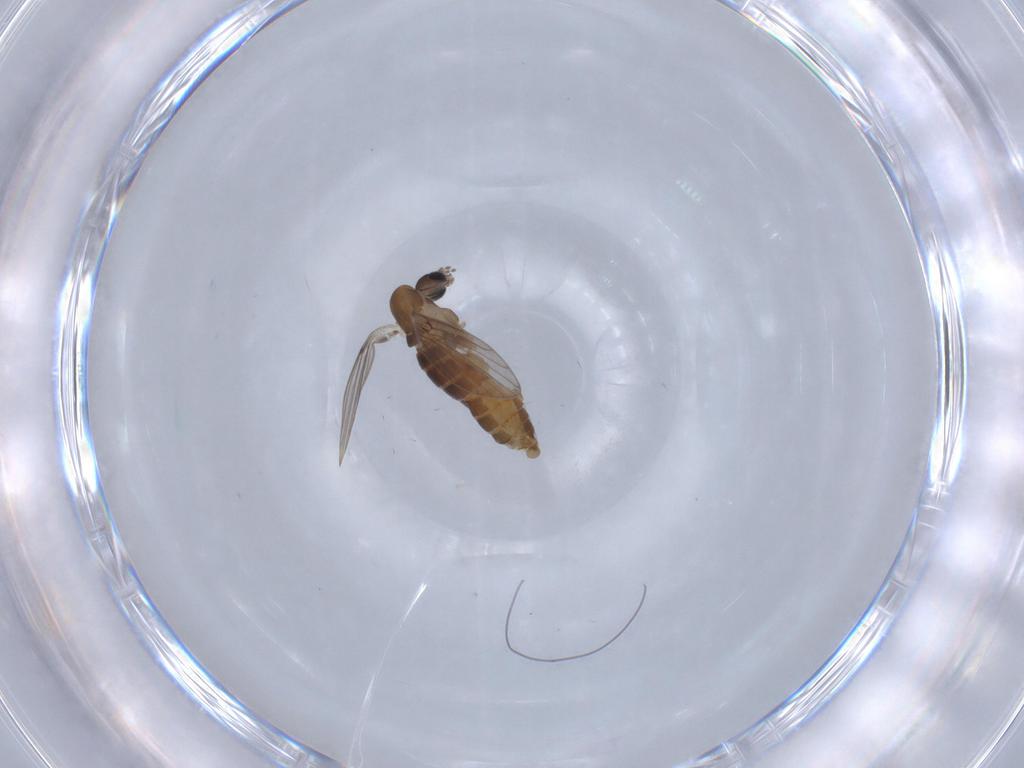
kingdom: Animalia
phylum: Arthropoda
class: Insecta
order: Diptera
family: Psychodidae
